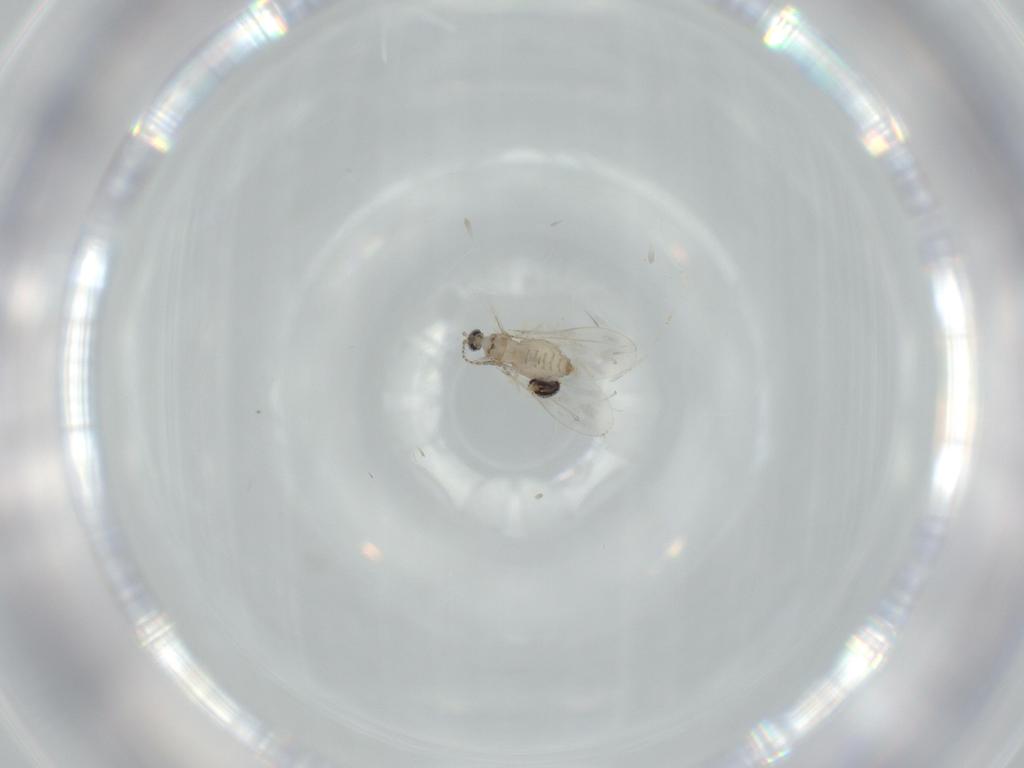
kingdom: Animalia
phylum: Arthropoda
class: Insecta
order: Diptera
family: Cecidomyiidae
